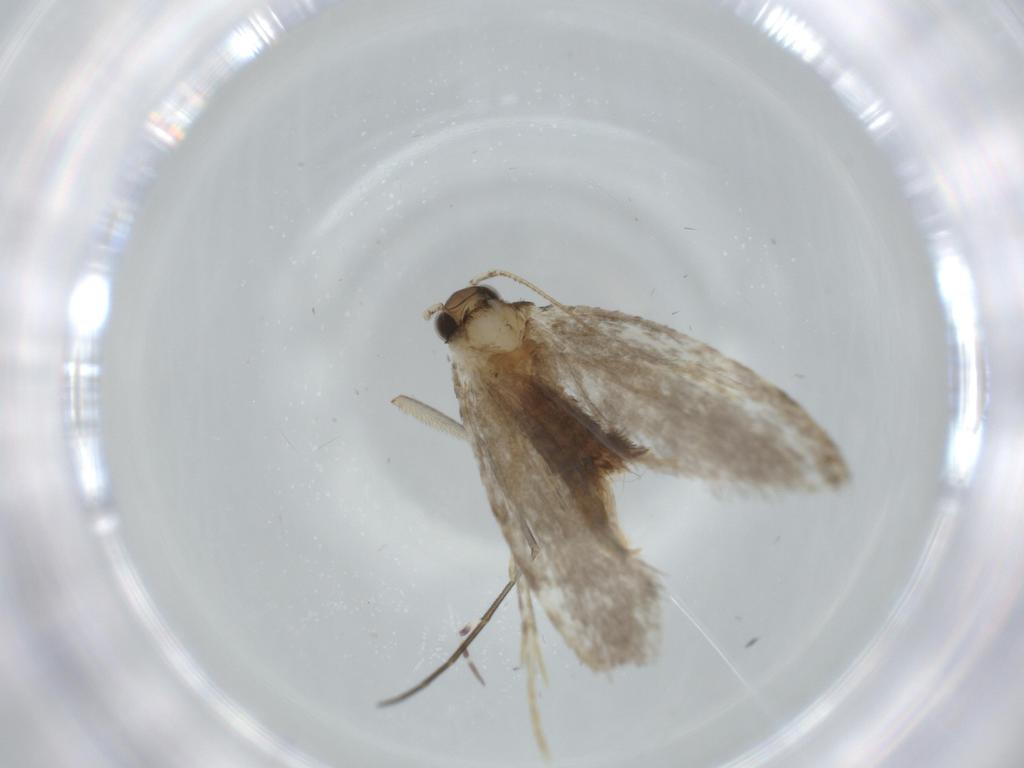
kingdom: Animalia
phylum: Arthropoda
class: Insecta
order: Lepidoptera
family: Tineidae
